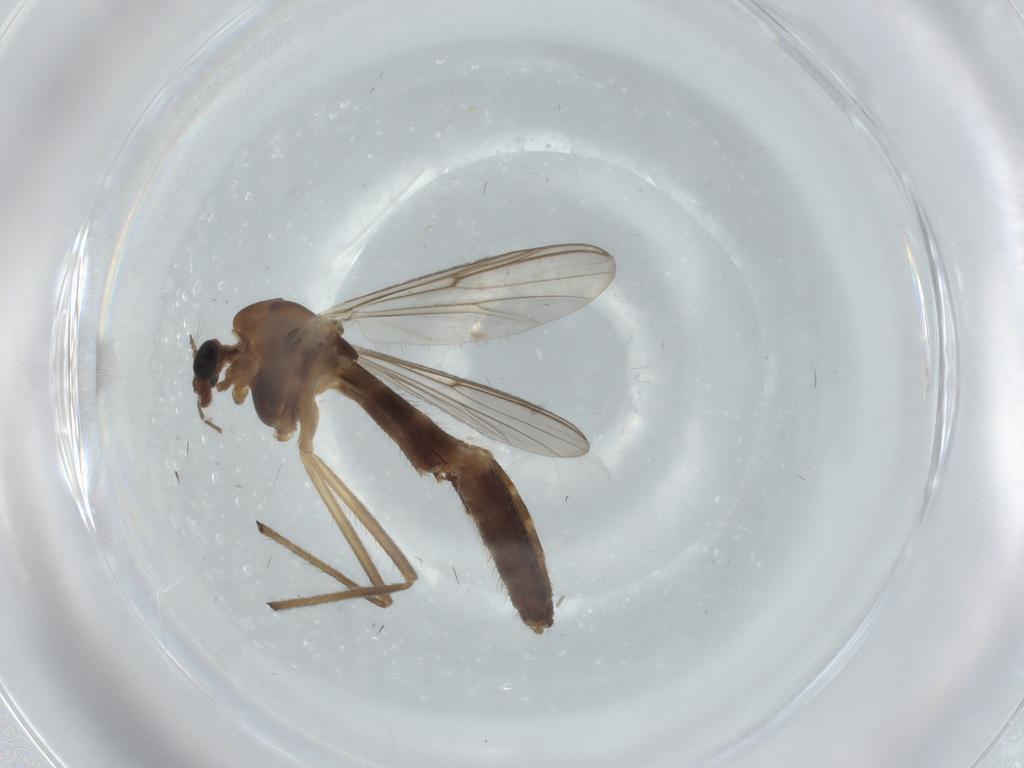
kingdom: Animalia
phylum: Arthropoda
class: Insecta
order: Diptera
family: Chironomidae
